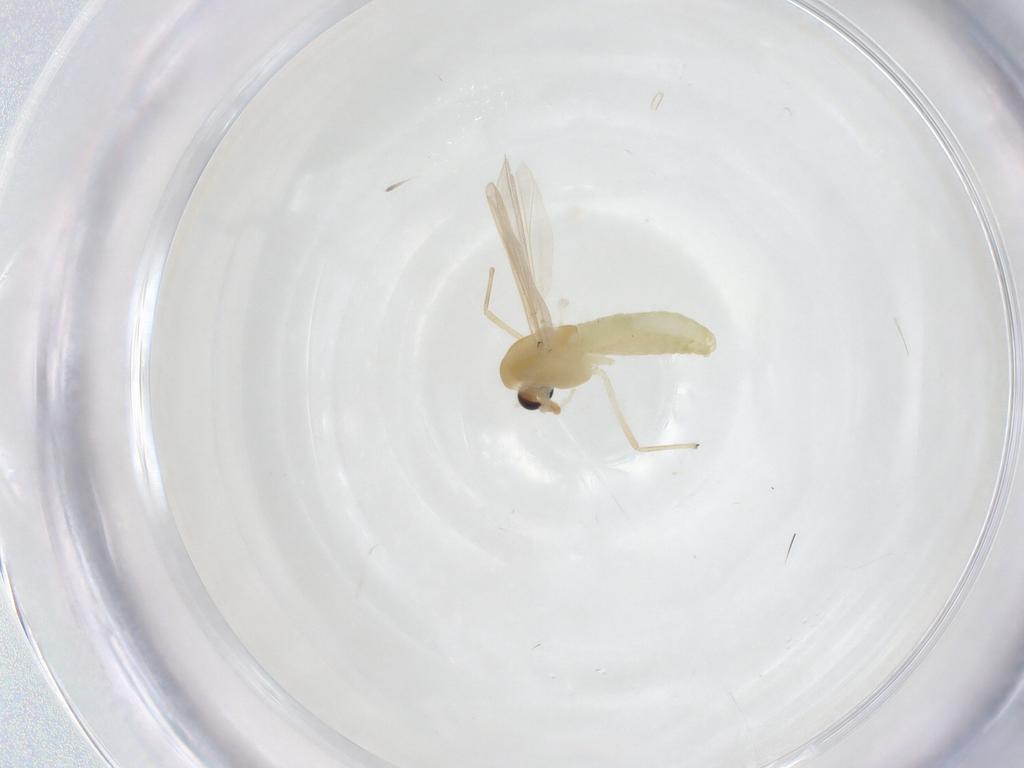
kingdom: Animalia
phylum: Arthropoda
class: Insecta
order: Diptera
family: Chironomidae
